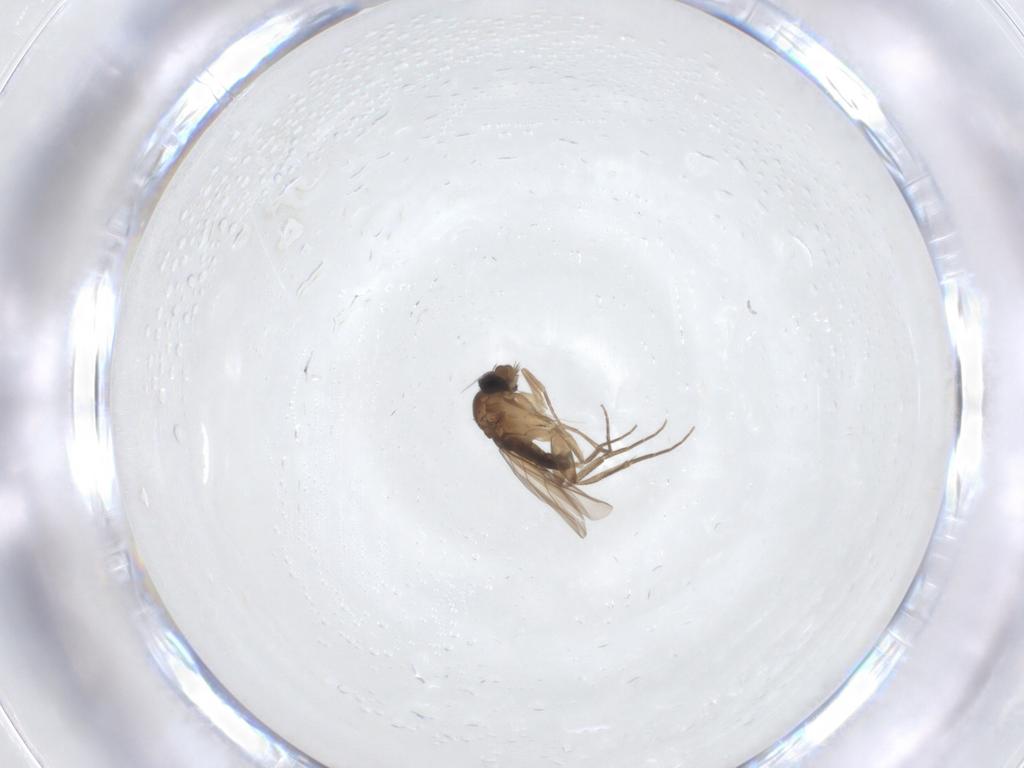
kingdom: Animalia
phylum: Arthropoda
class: Insecta
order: Diptera
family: Phoridae
